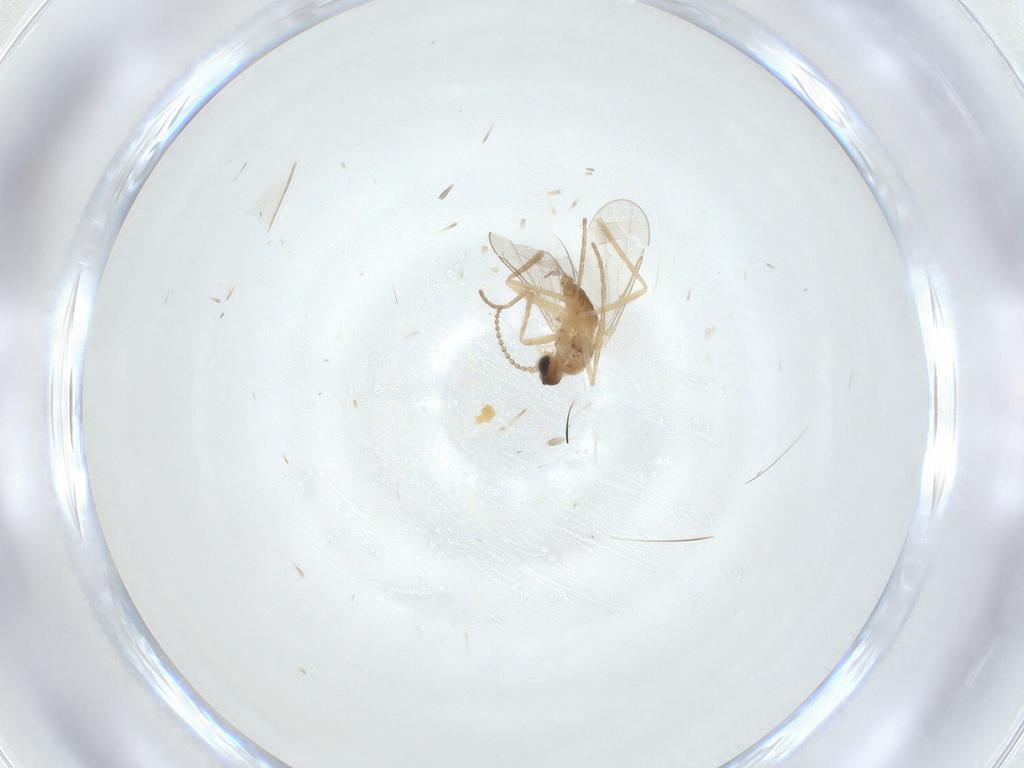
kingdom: Animalia
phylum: Arthropoda
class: Insecta
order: Diptera
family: Cecidomyiidae
